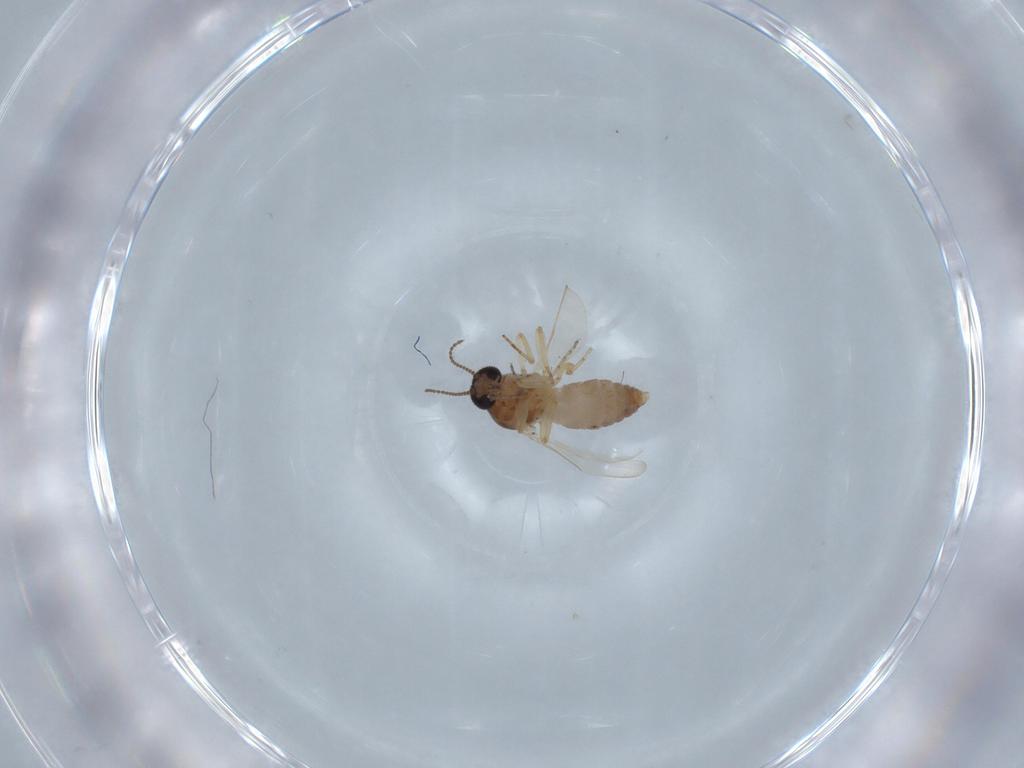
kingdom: Animalia
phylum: Arthropoda
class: Insecta
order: Diptera
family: Ceratopogonidae
